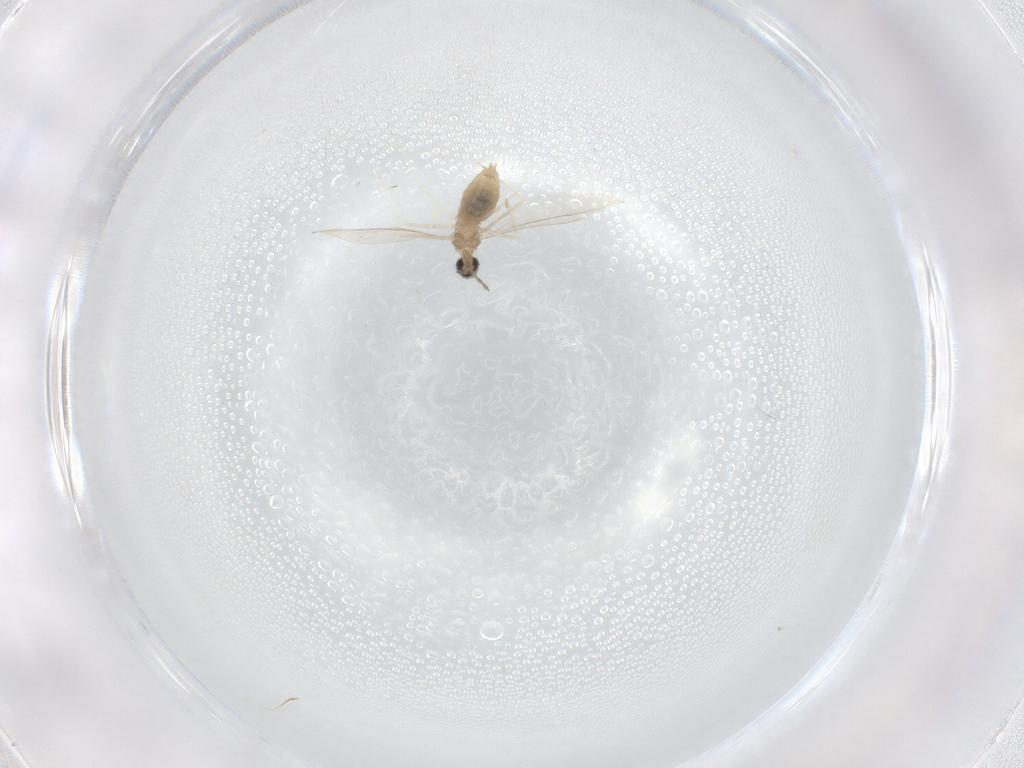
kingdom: Animalia
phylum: Arthropoda
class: Insecta
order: Diptera
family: Cecidomyiidae
